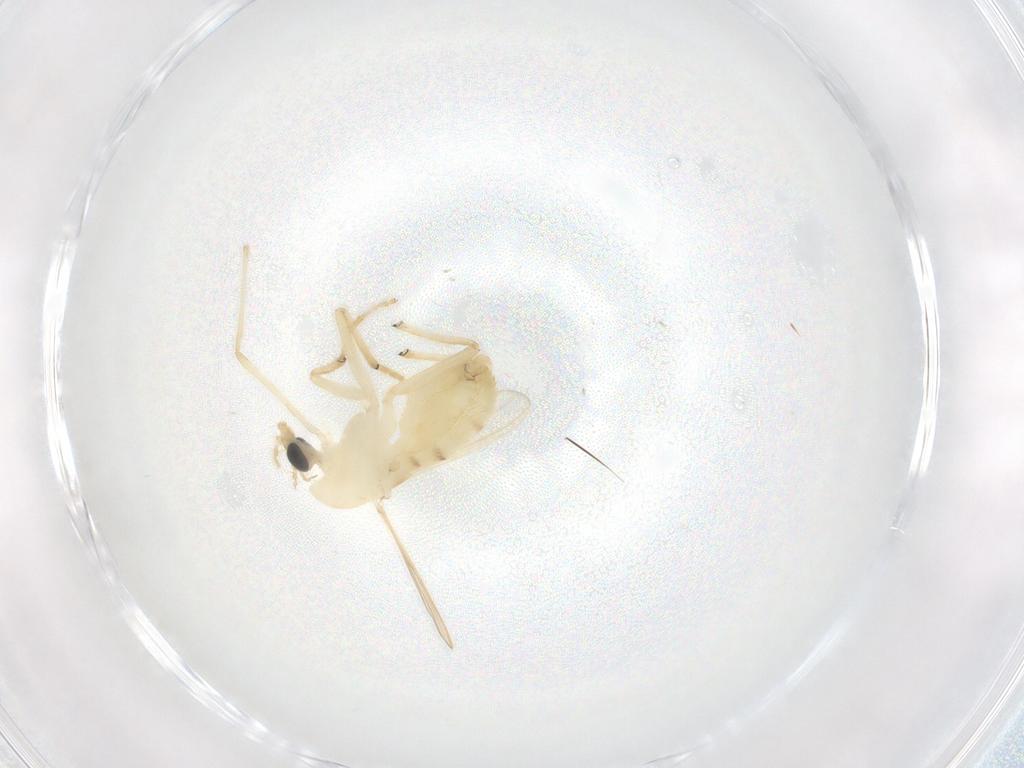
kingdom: Animalia
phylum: Arthropoda
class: Insecta
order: Diptera
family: Chironomidae
